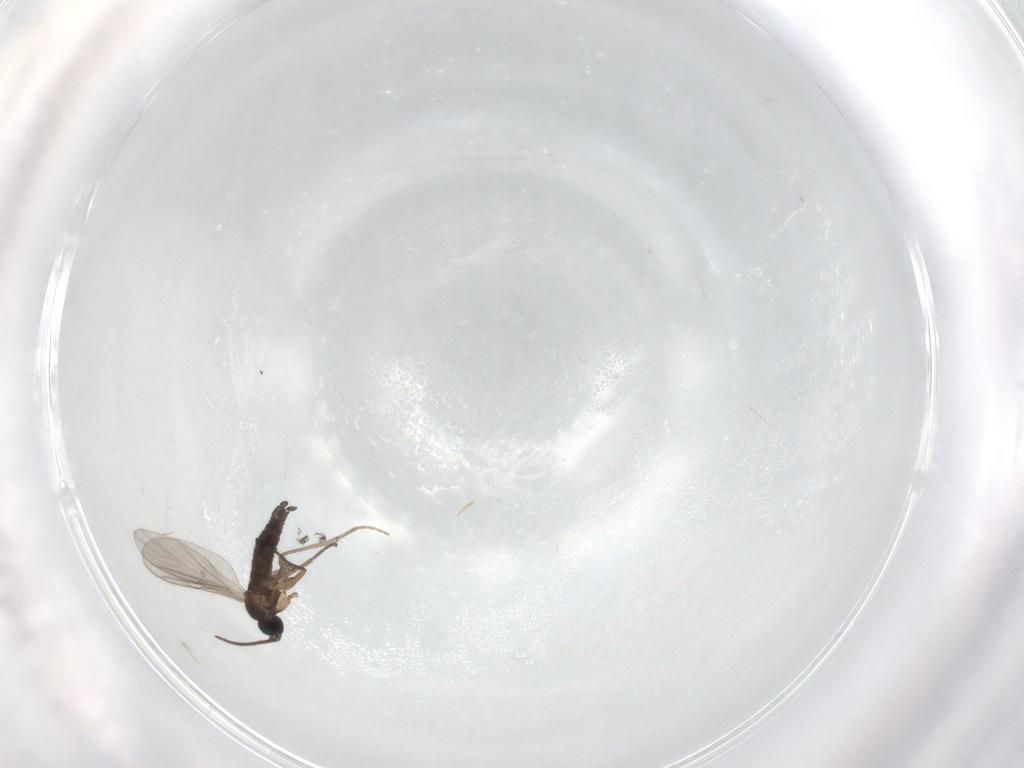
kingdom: Animalia
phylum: Arthropoda
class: Insecta
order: Diptera
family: Sciaridae
